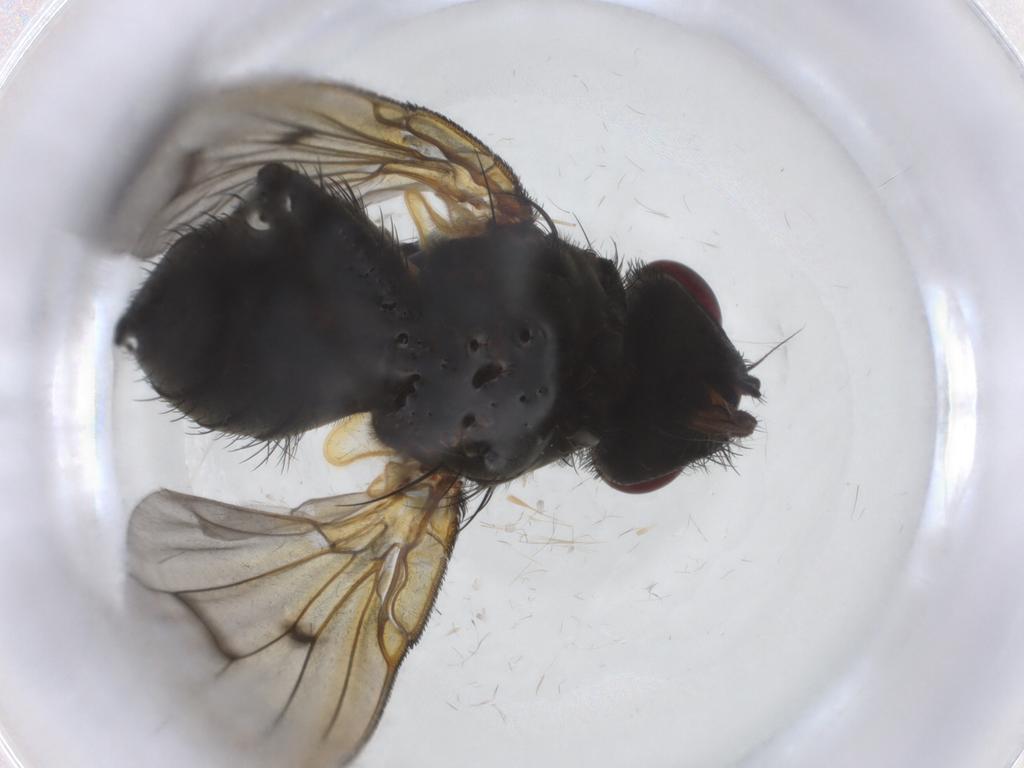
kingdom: Animalia
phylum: Arthropoda
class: Insecta
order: Diptera
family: Muscidae
